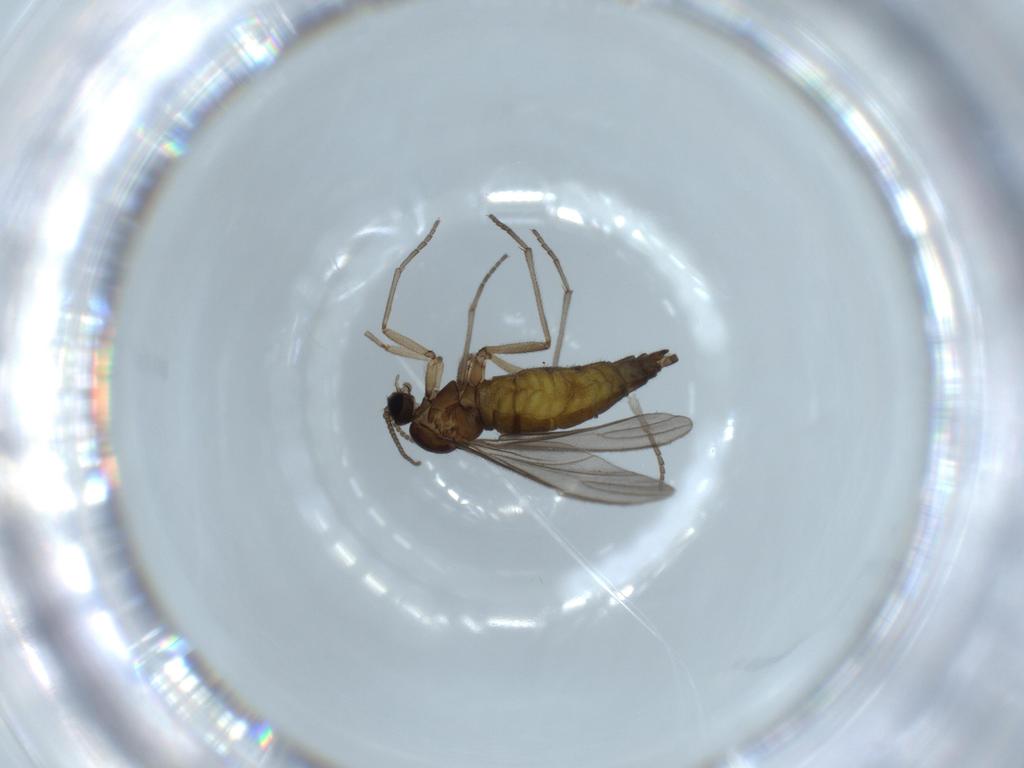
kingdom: Animalia
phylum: Arthropoda
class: Insecta
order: Diptera
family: Sciaridae
